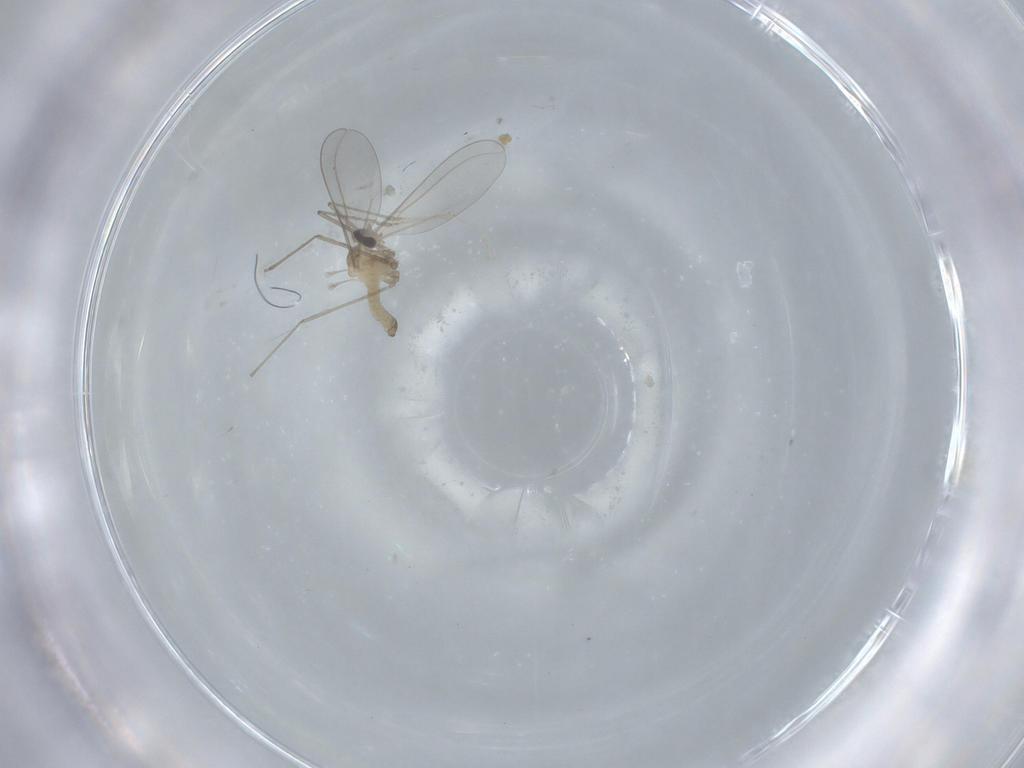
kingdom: Animalia
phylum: Arthropoda
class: Insecta
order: Diptera
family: Cecidomyiidae
